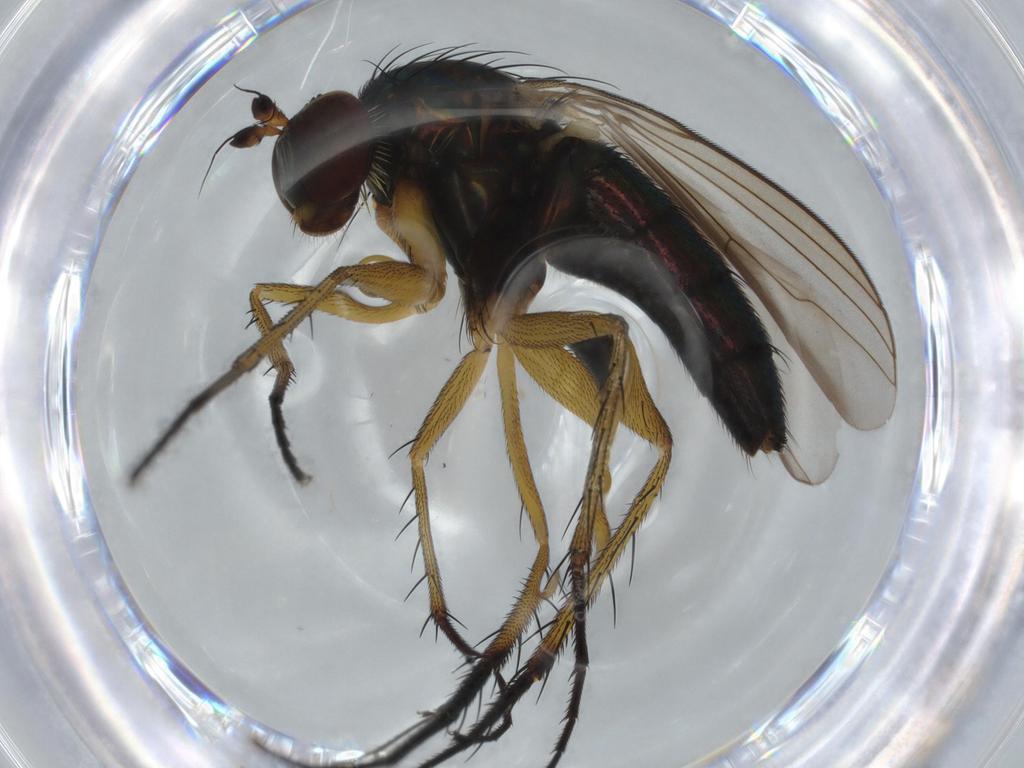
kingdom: Animalia
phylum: Arthropoda
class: Insecta
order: Diptera
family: Dolichopodidae
